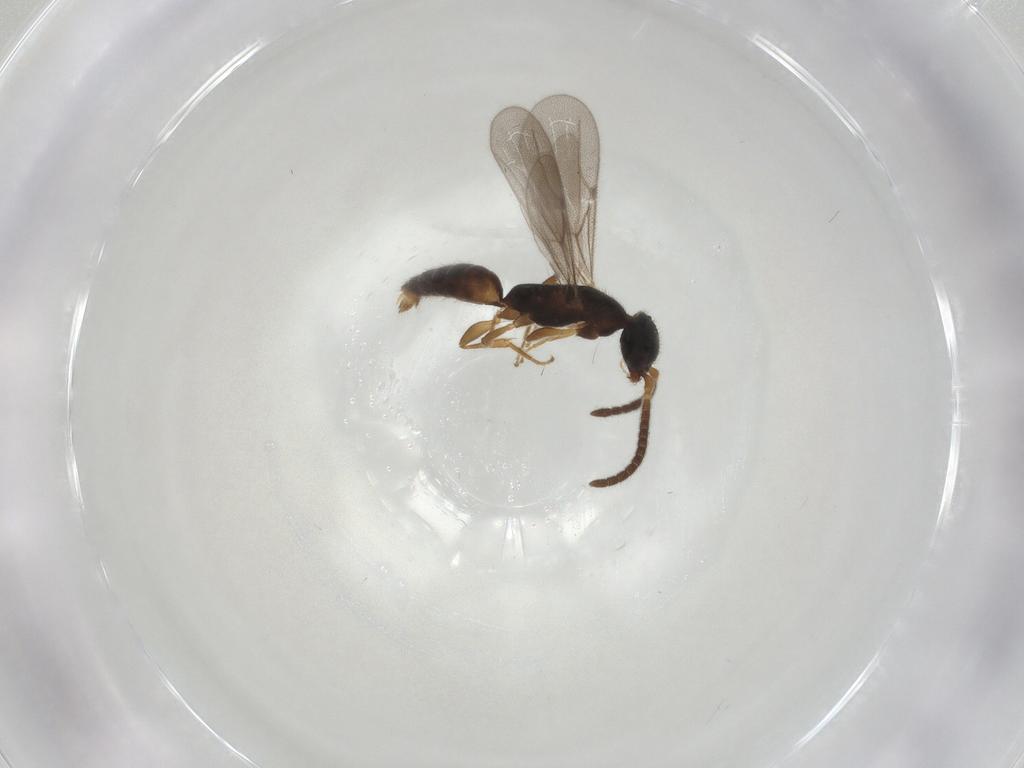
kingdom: Animalia
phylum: Arthropoda
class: Insecta
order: Hymenoptera
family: Bethylidae
